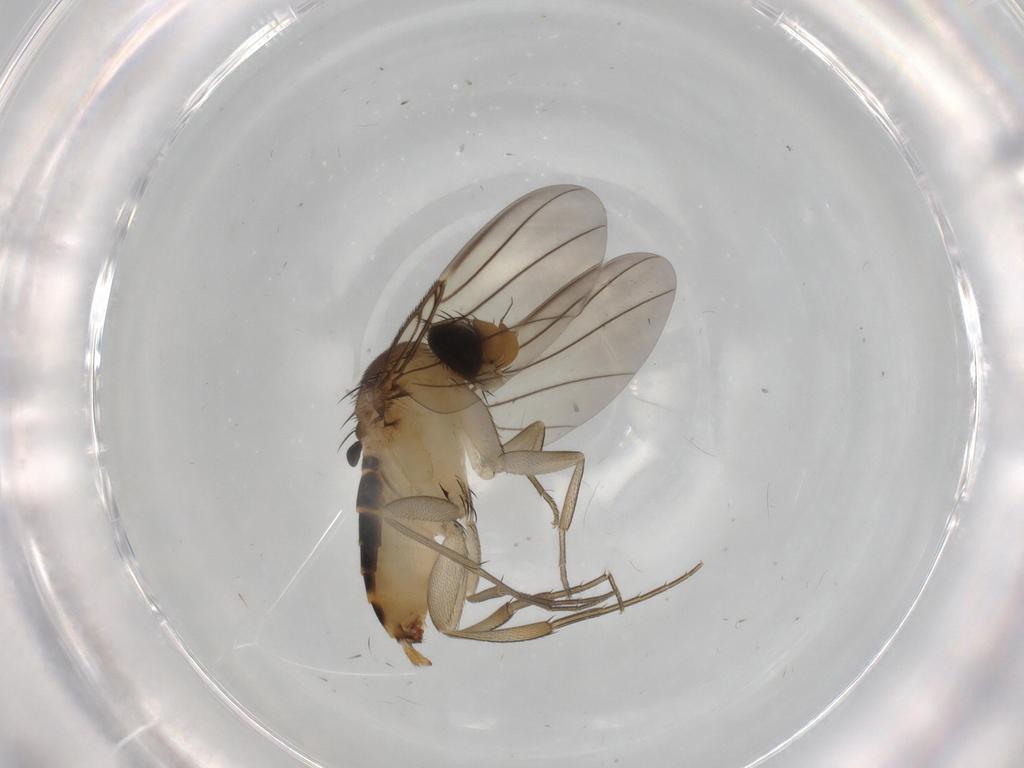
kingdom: Animalia
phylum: Arthropoda
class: Insecta
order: Diptera
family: Phoridae
